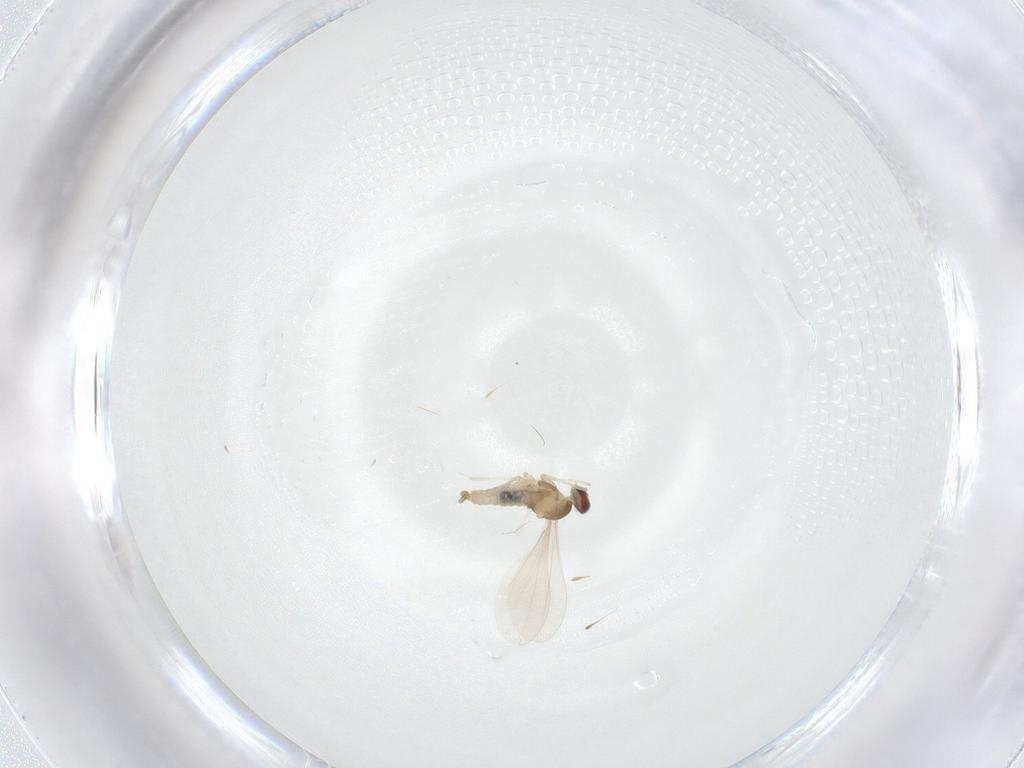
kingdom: Animalia
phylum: Arthropoda
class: Insecta
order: Diptera
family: Cecidomyiidae
